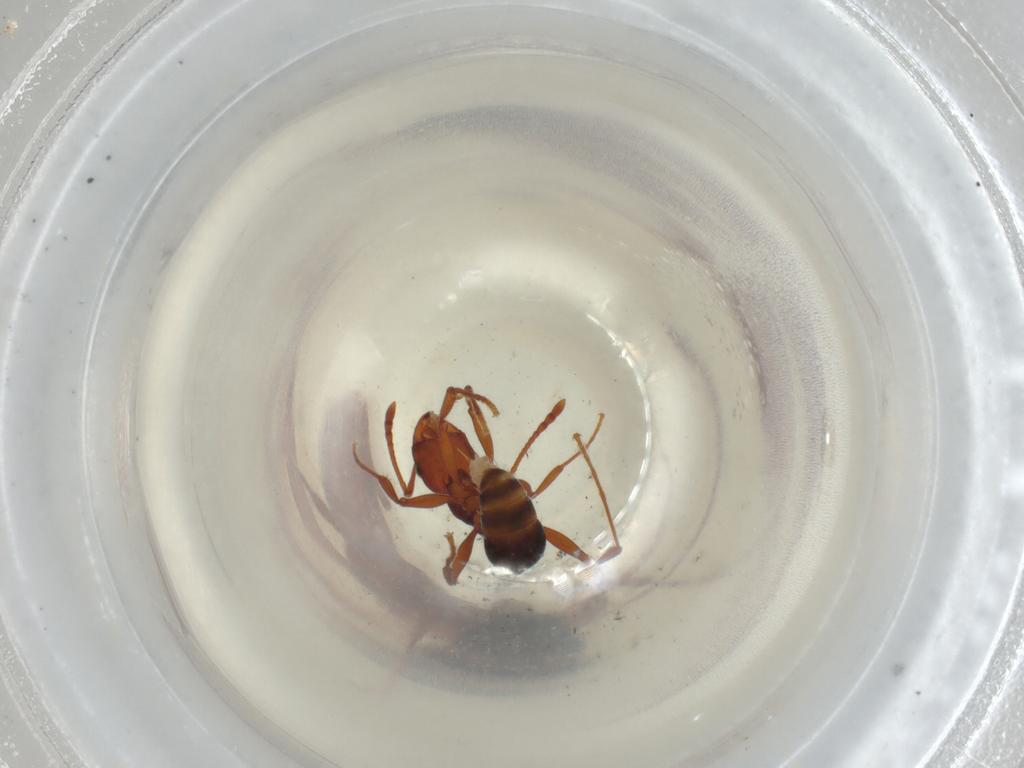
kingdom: Animalia
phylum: Arthropoda
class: Insecta
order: Hymenoptera
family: Formicidae
